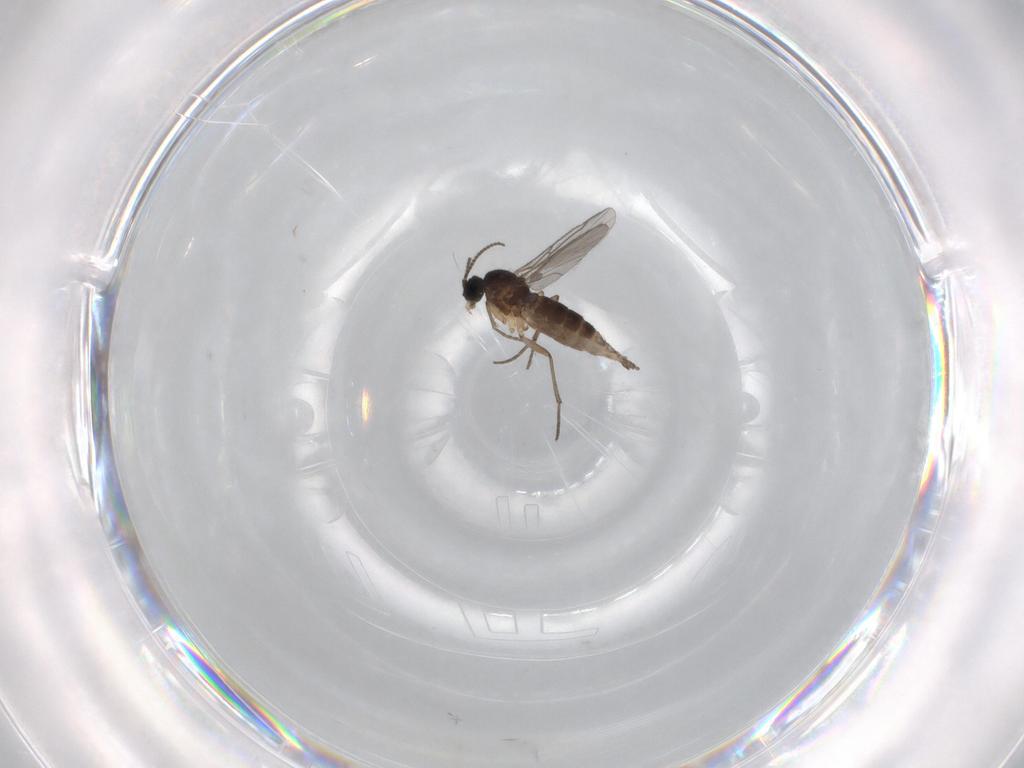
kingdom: Animalia
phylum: Arthropoda
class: Insecta
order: Diptera
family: Sciaridae
